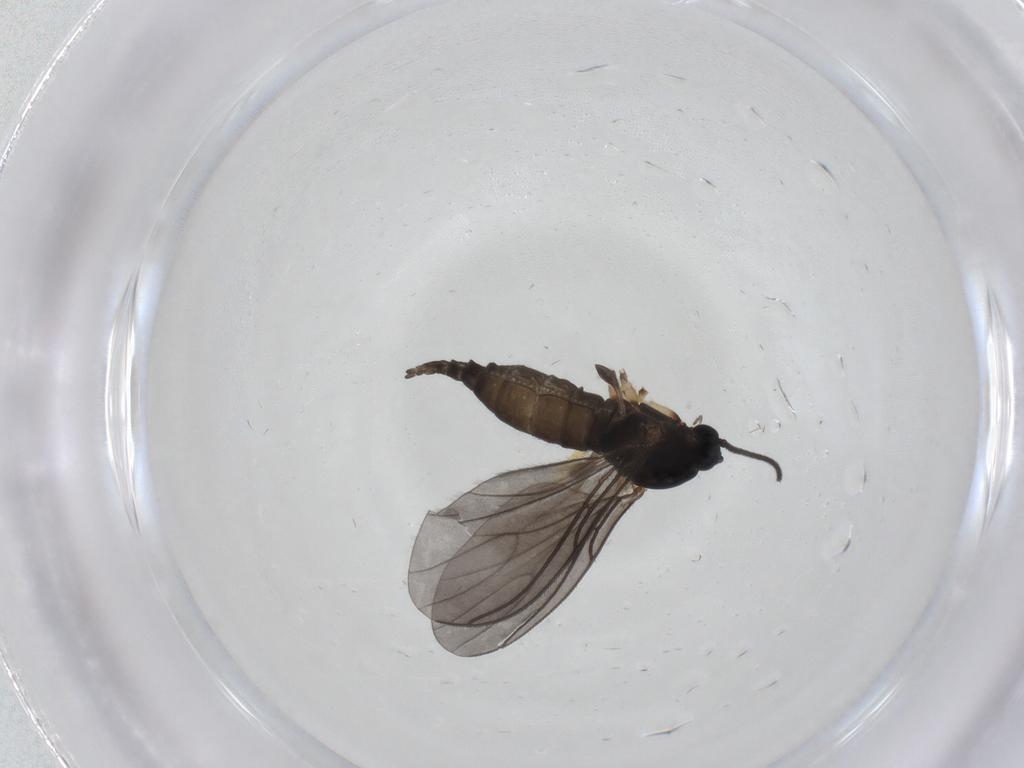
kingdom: Animalia
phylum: Arthropoda
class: Insecta
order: Diptera
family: Sciaridae
